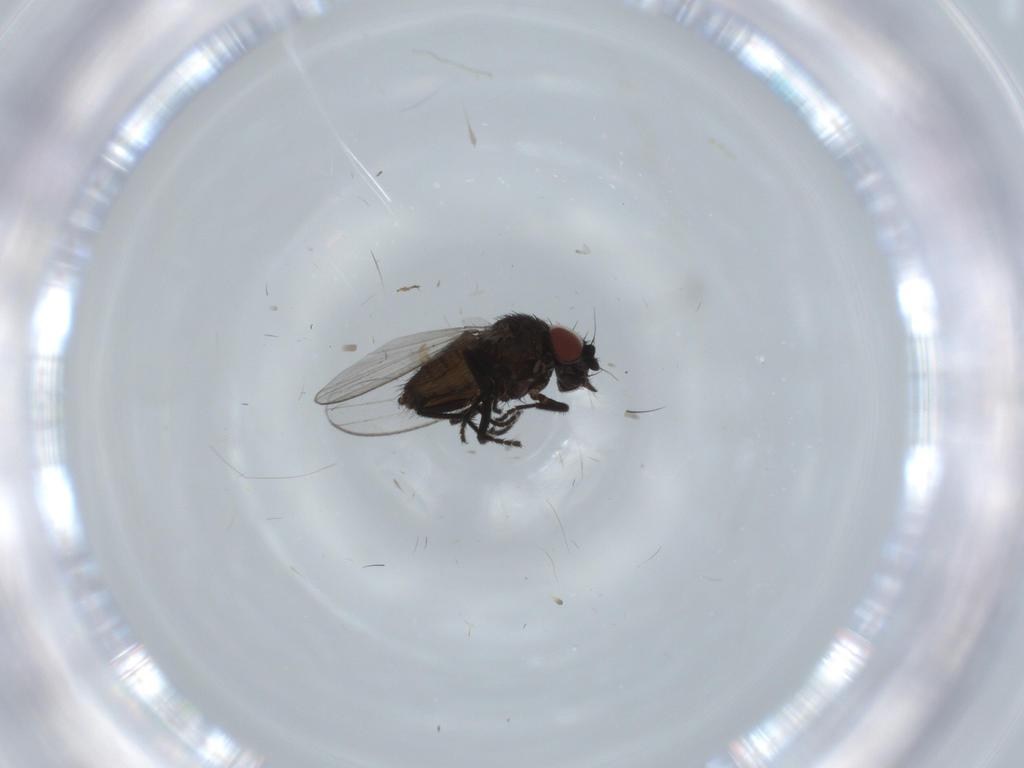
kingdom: Animalia
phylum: Arthropoda
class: Insecta
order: Diptera
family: Milichiidae
